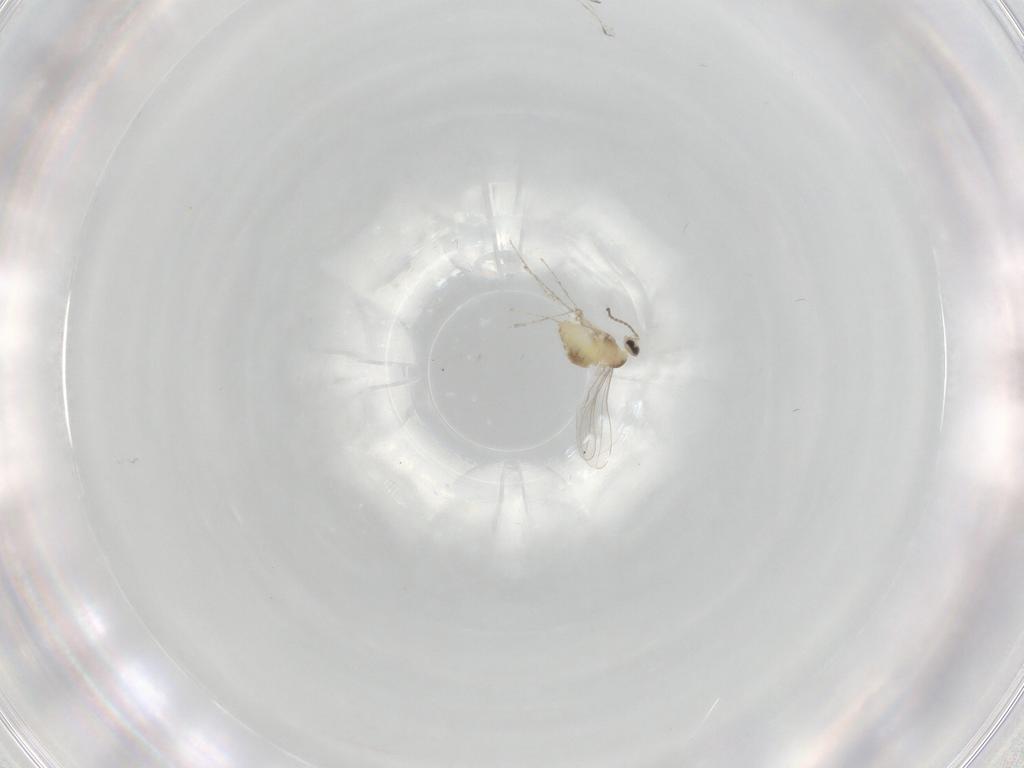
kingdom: Animalia
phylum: Arthropoda
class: Insecta
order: Diptera
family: Cecidomyiidae
